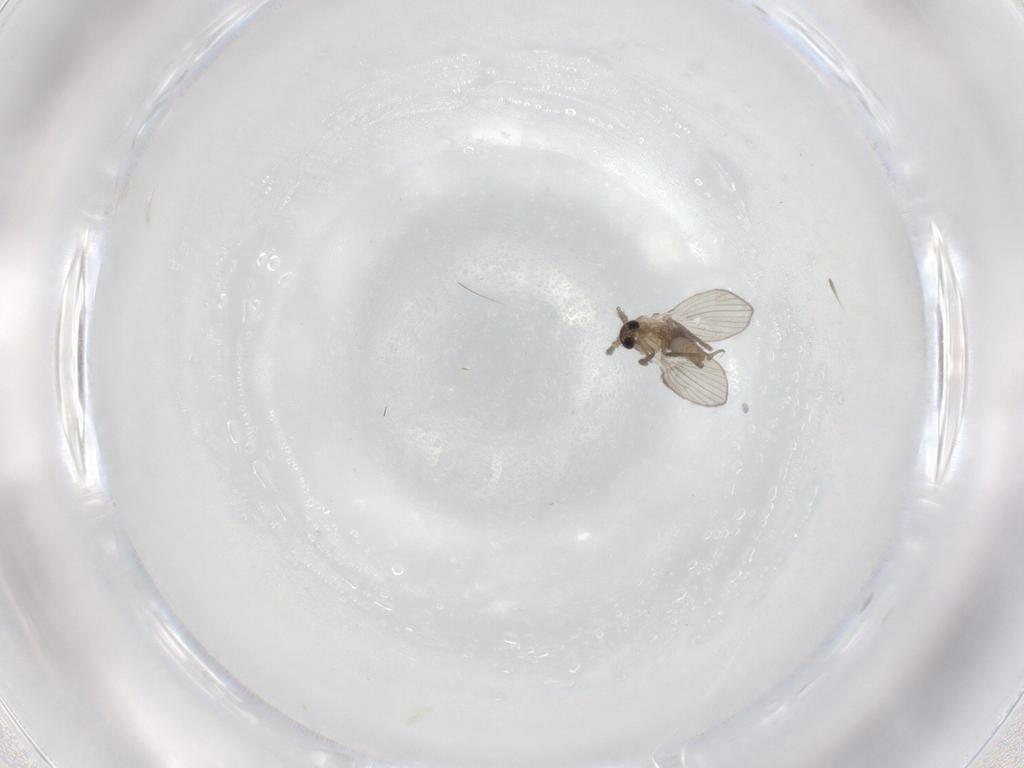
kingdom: Animalia
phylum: Arthropoda
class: Insecta
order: Diptera
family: Psychodidae
